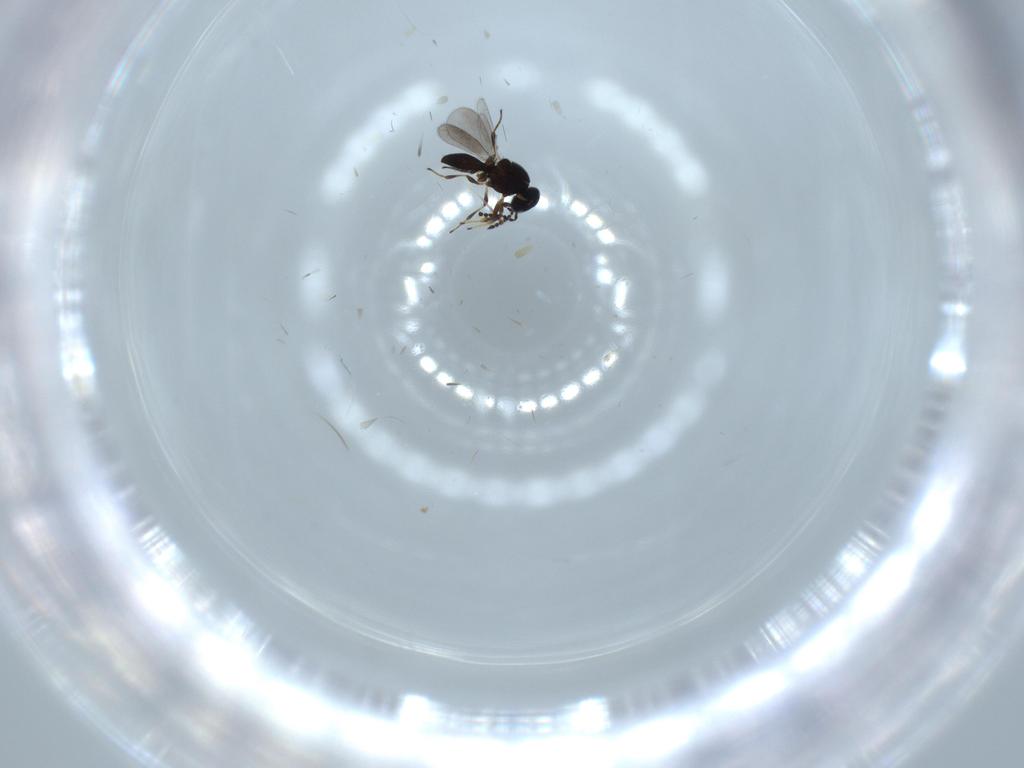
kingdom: Animalia
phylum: Arthropoda
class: Insecta
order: Hymenoptera
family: Platygastridae
